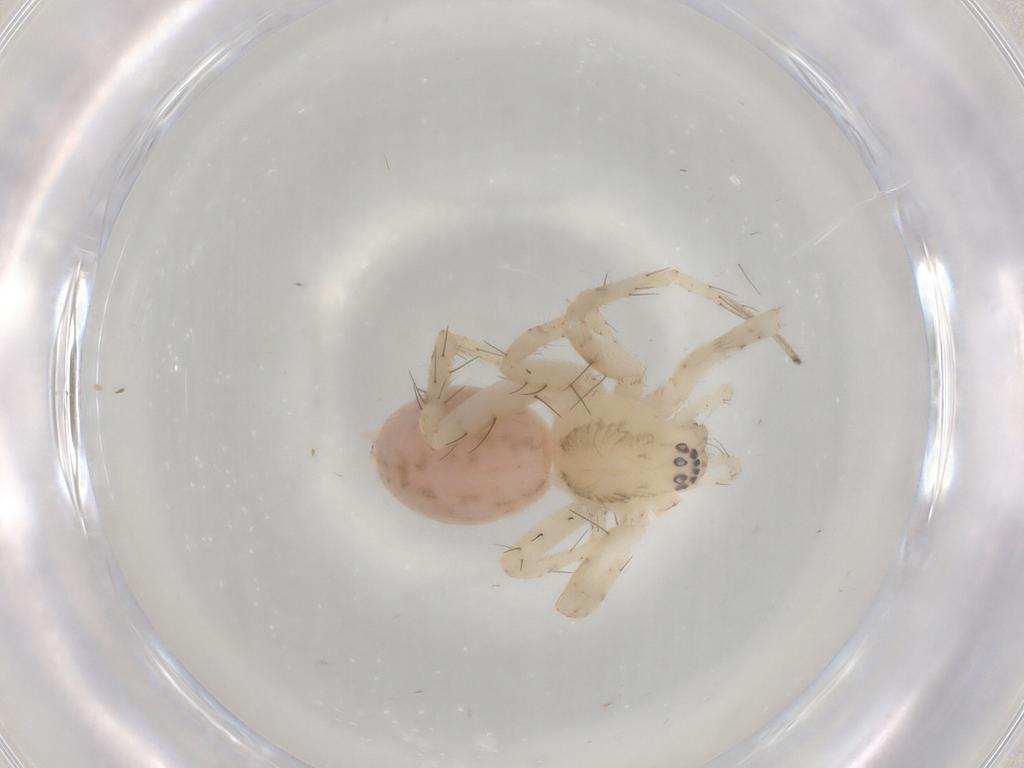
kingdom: Animalia
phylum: Arthropoda
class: Arachnida
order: Araneae
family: Anyphaenidae
